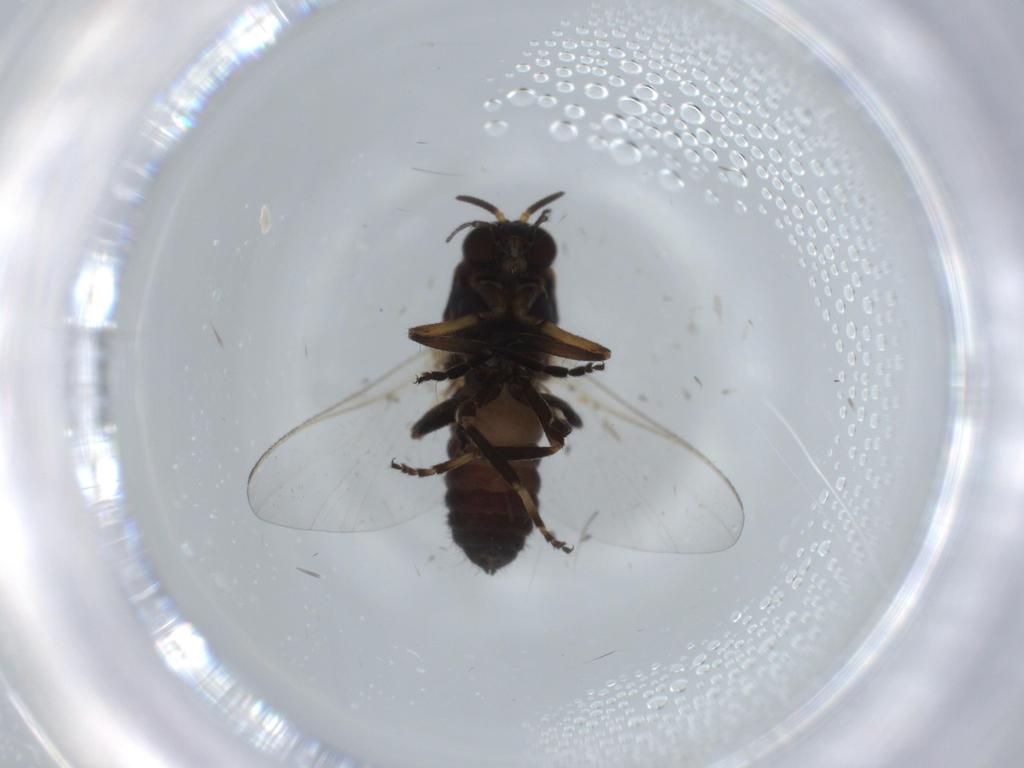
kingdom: Animalia
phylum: Arthropoda
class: Insecta
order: Diptera
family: Phoridae
